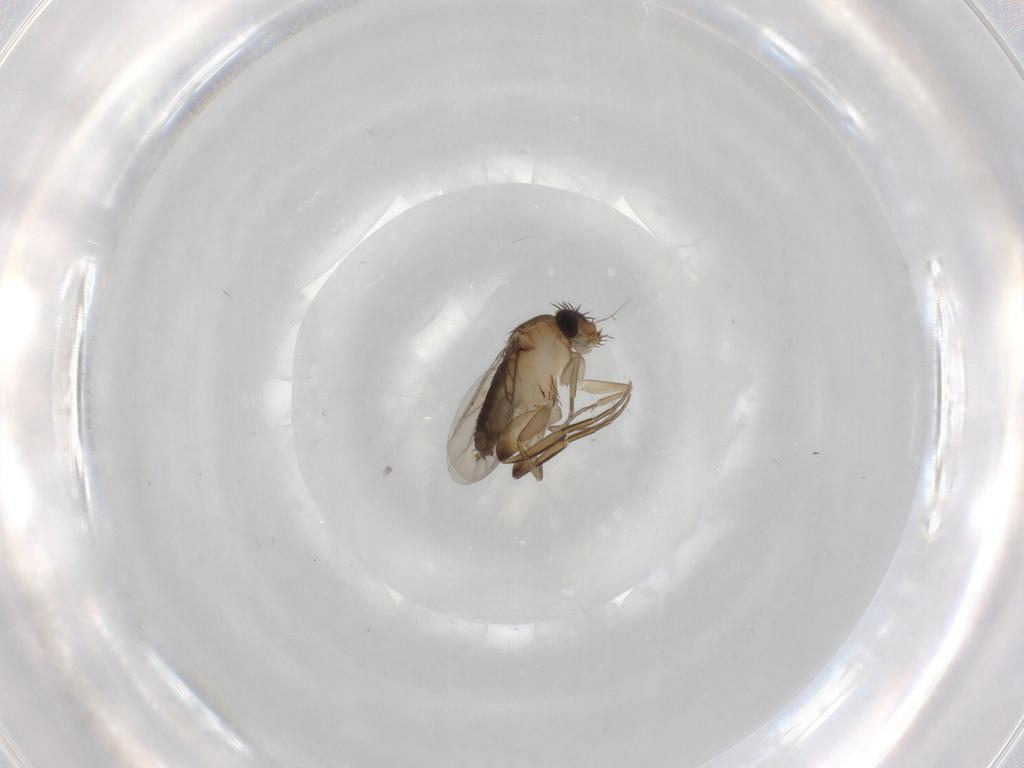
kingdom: Animalia
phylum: Arthropoda
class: Insecta
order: Diptera
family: Phoridae
